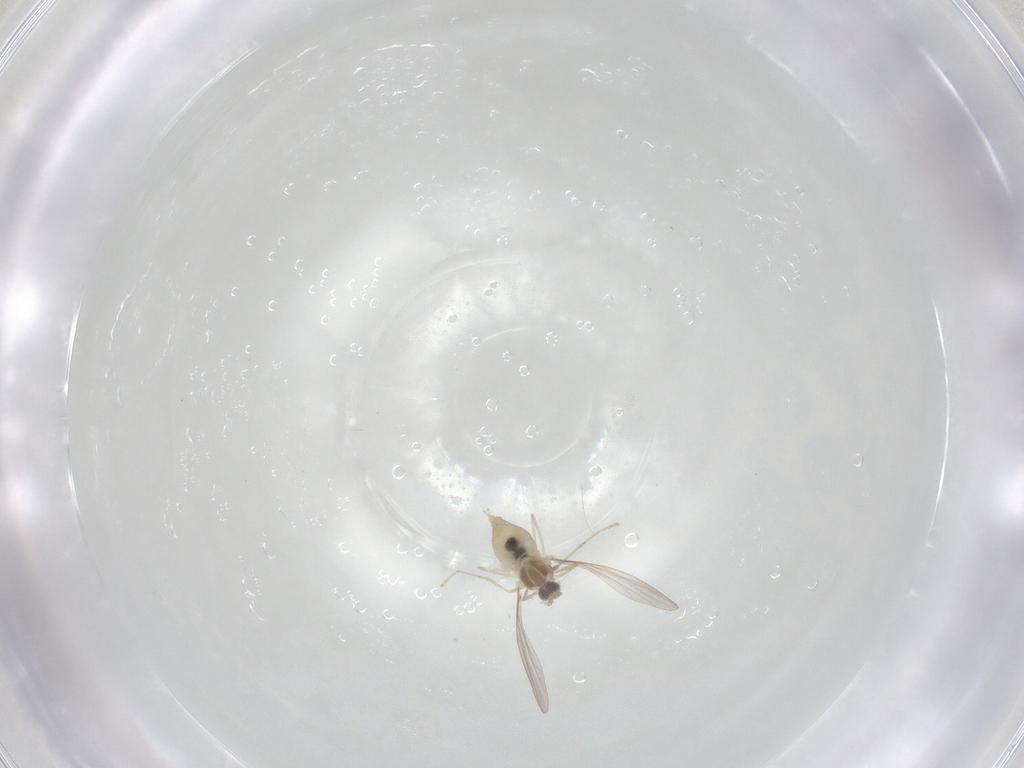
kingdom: Animalia
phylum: Arthropoda
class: Insecta
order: Diptera
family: Cecidomyiidae
